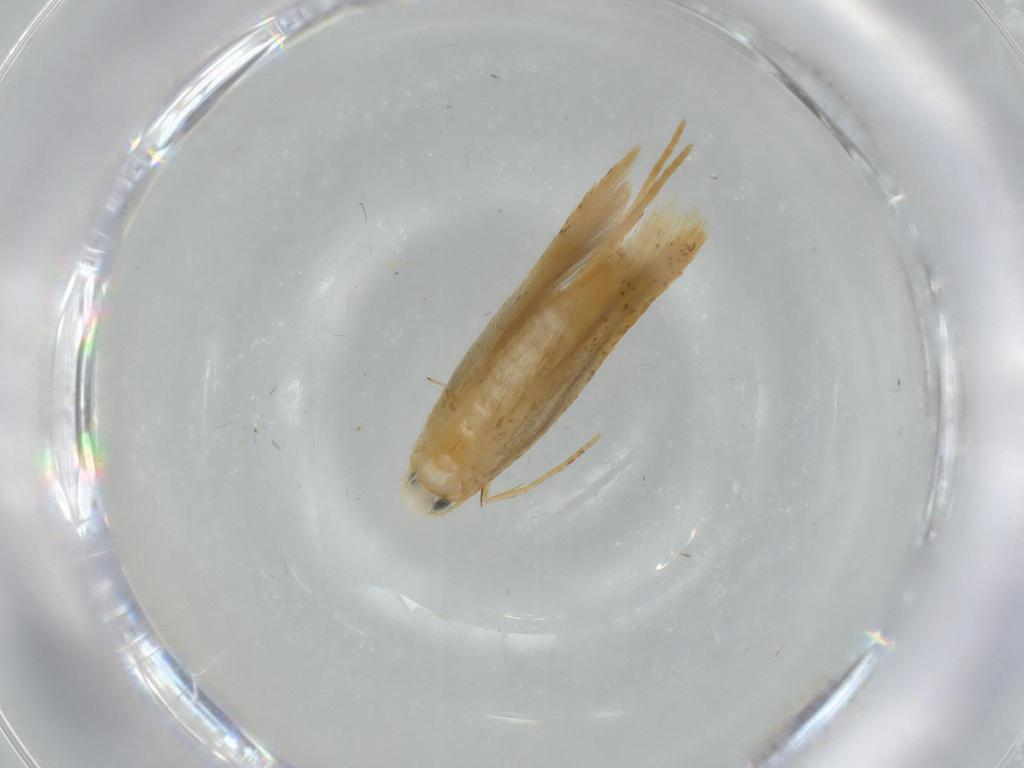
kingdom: Animalia
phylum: Arthropoda
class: Insecta
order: Lepidoptera
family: Tineidae
